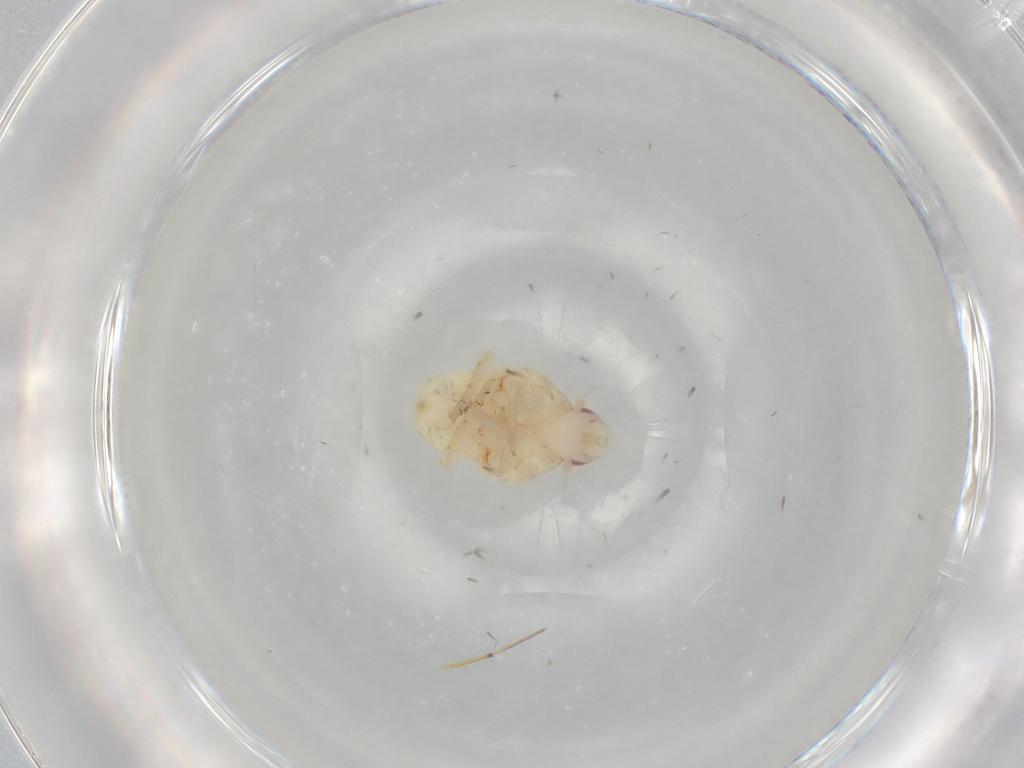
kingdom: Animalia
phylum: Arthropoda
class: Insecta
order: Hemiptera
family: Flatidae
